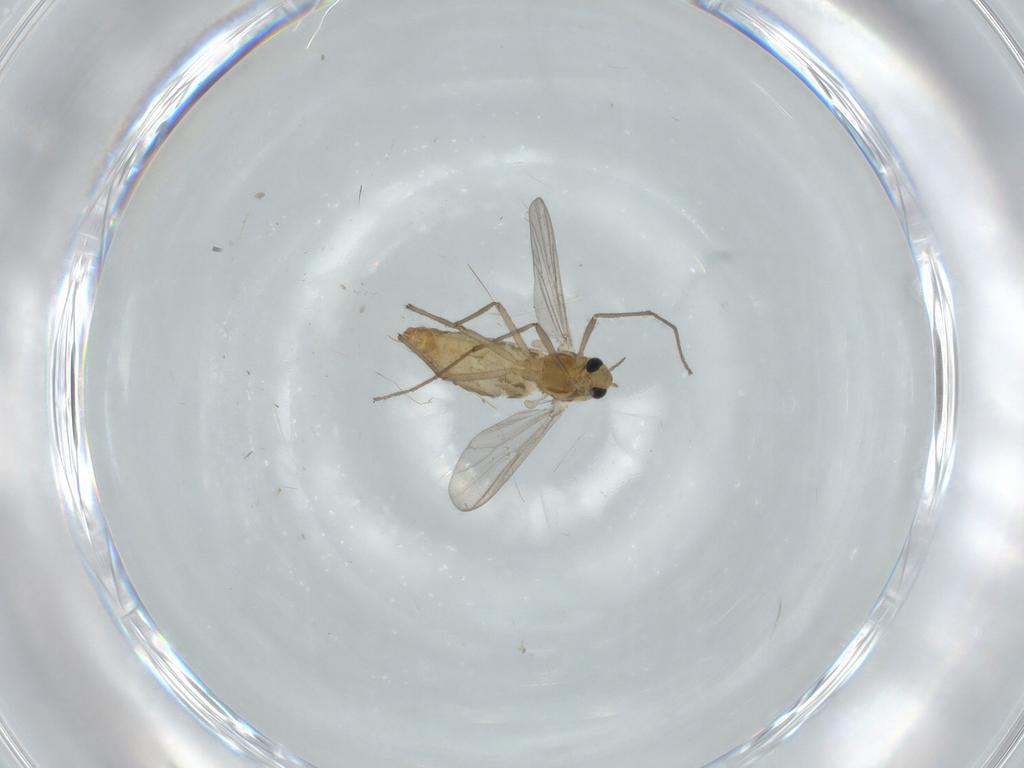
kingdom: Animalia
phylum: Arthropoda
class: Insecta
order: Diptera
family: Chironomidae
